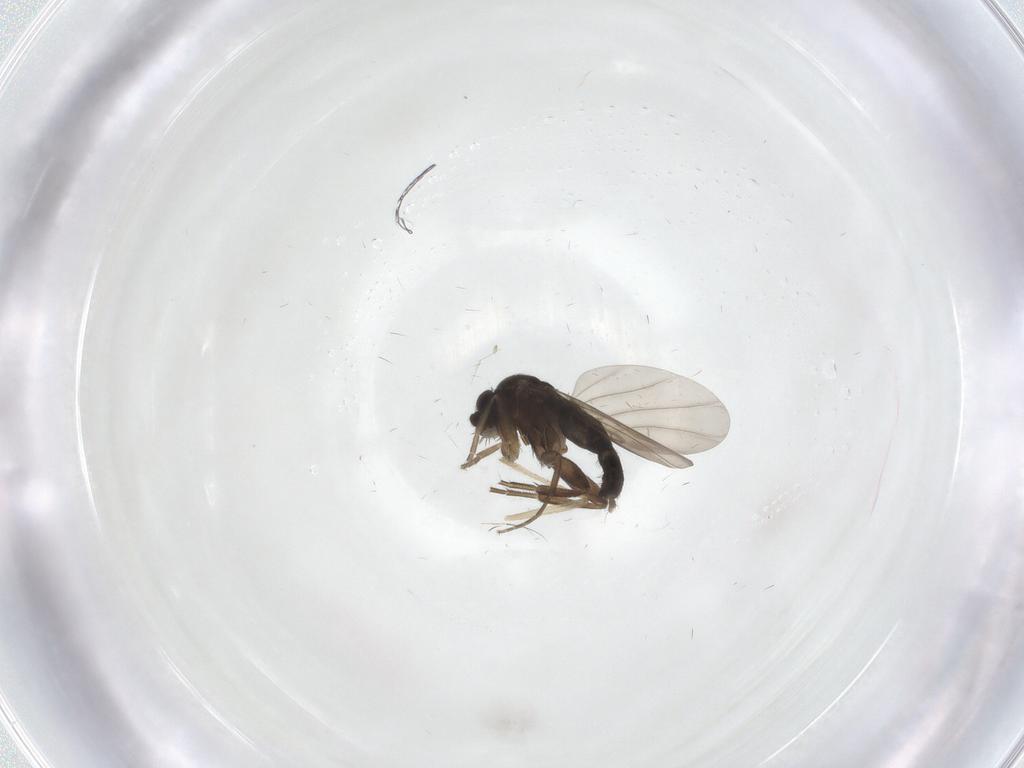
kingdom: Animalia
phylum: Arthropoda
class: Insecta
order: Diptera
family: Phoridae
